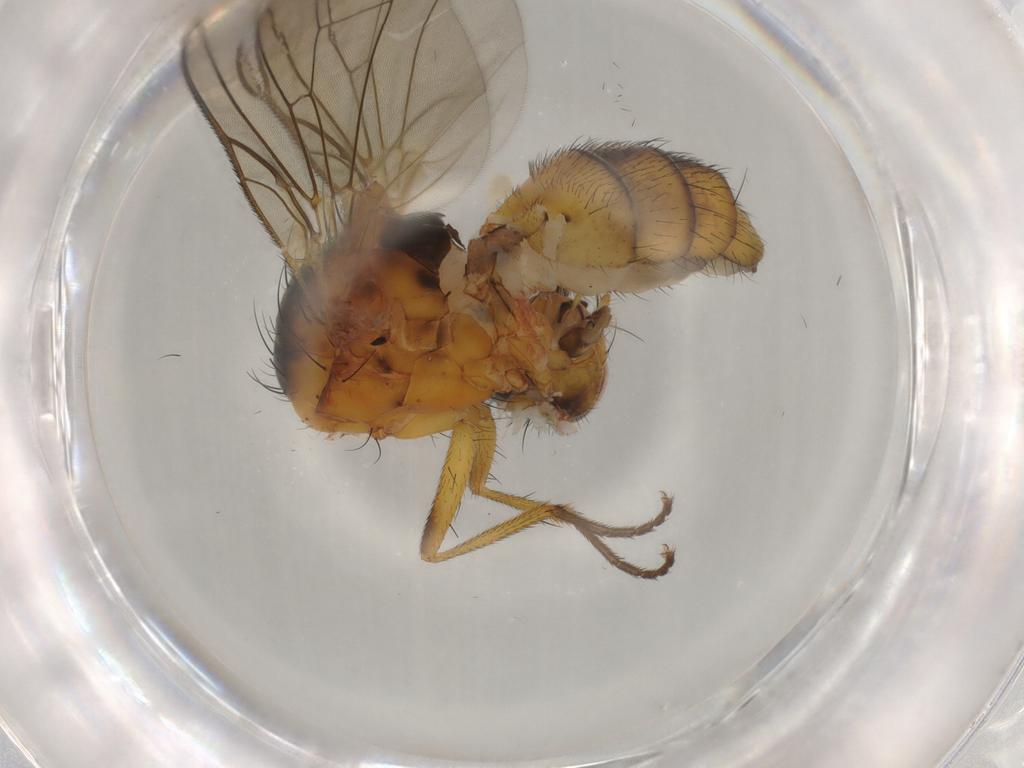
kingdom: Animalia
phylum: Arthropoda
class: Insecta
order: Diptera
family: Anthomyiidae
